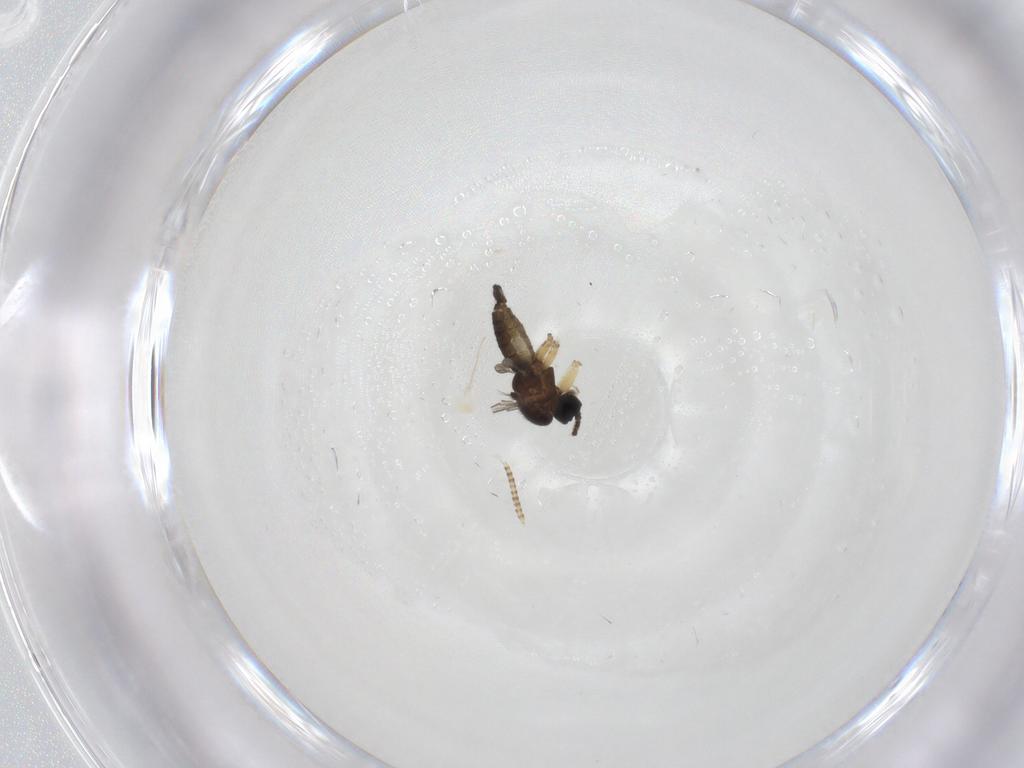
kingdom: Animalia
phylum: Arthropoda
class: Insecta
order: Diptera
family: Sciaridae
